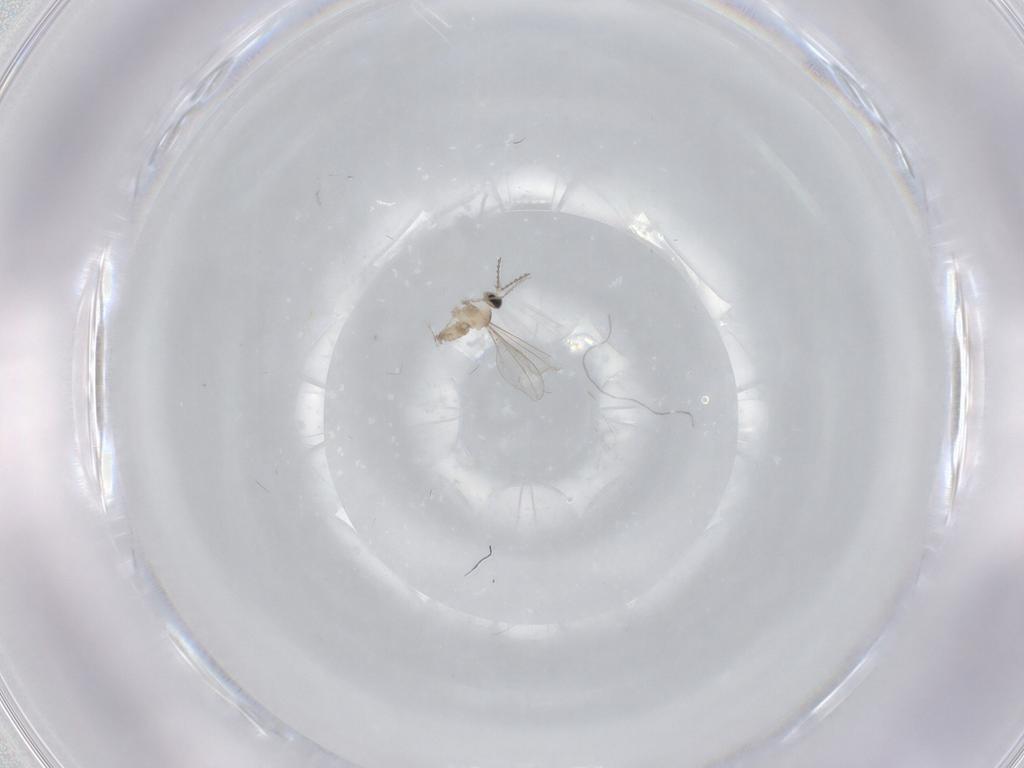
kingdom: Animalia
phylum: Arthropoda
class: Insecta
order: Diptera
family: Cecidomyiidae
